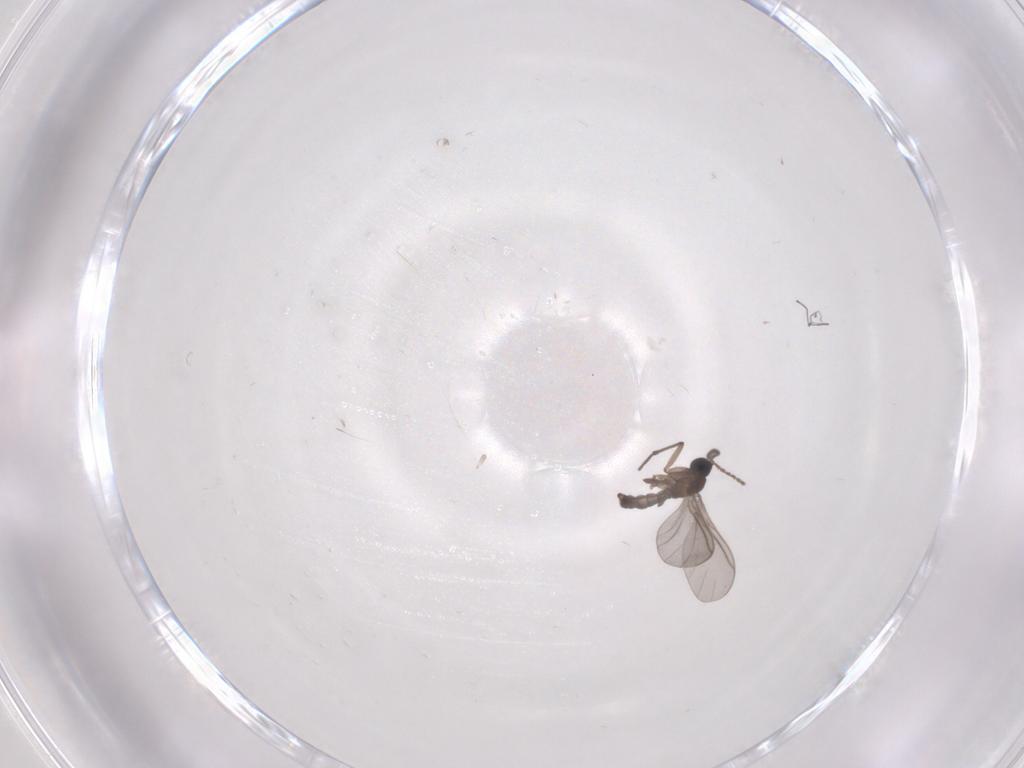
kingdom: Animalia
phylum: Arthropoda
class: Insecta
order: Diptera
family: Sciaridae
